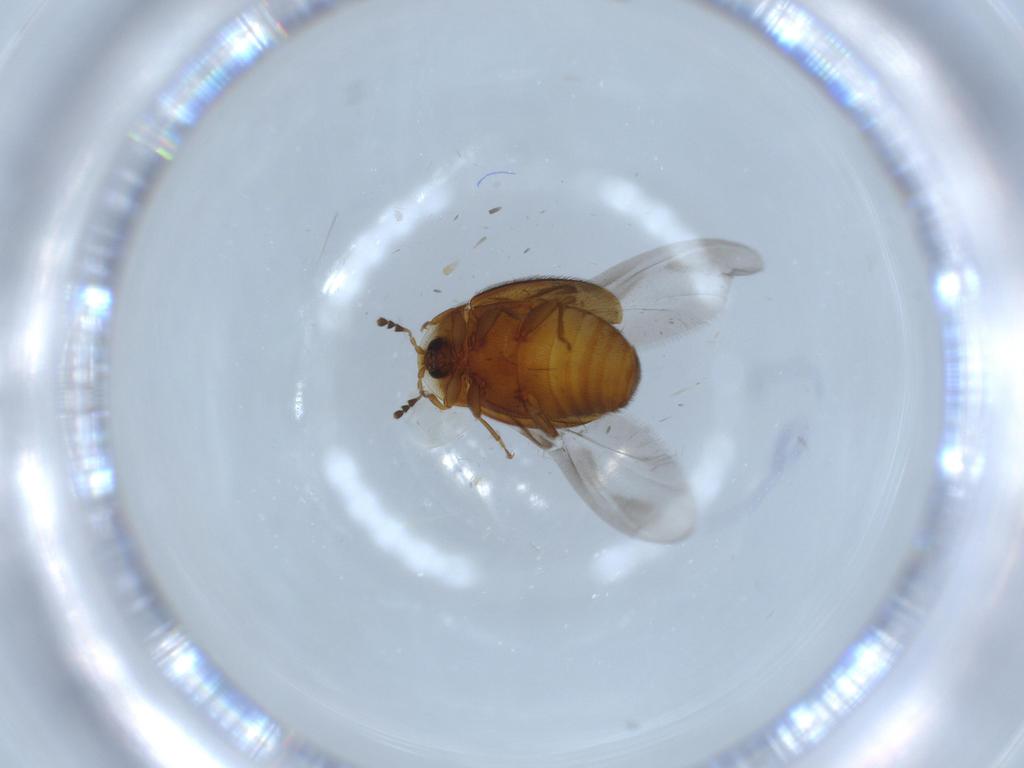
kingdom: Animalia
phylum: Arthropoda
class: Insecta
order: Coleoptera
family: Corylophidae
